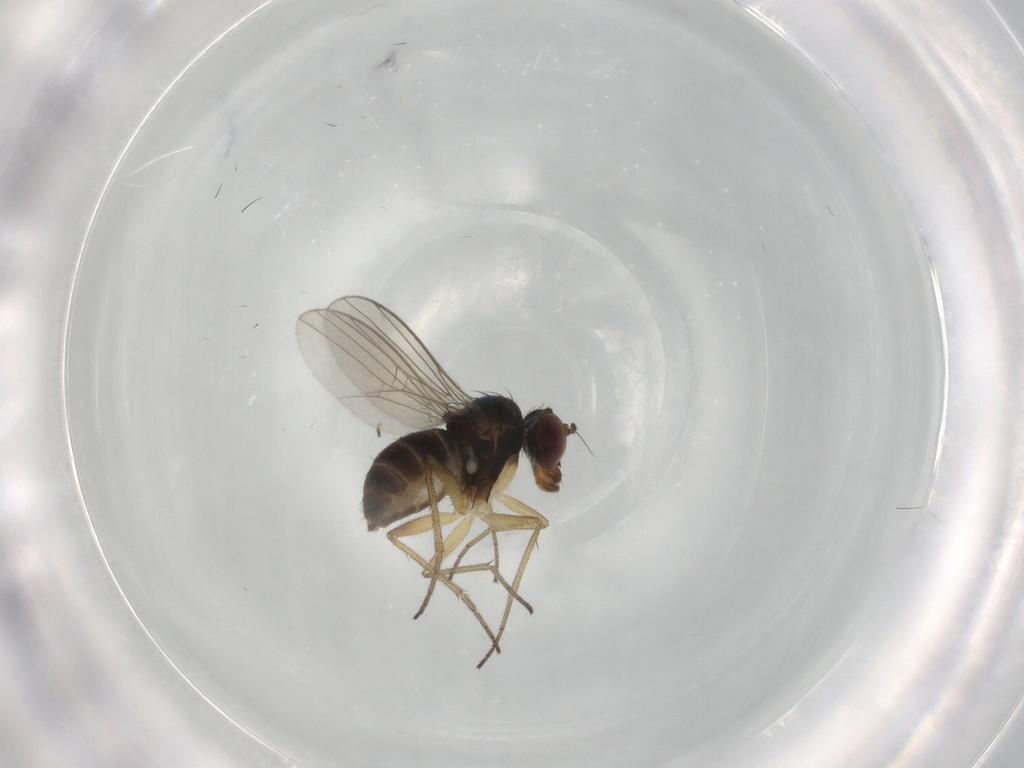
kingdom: Animalia
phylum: Arthropoda
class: Insecta
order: Diptera
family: Dolichopodidae
